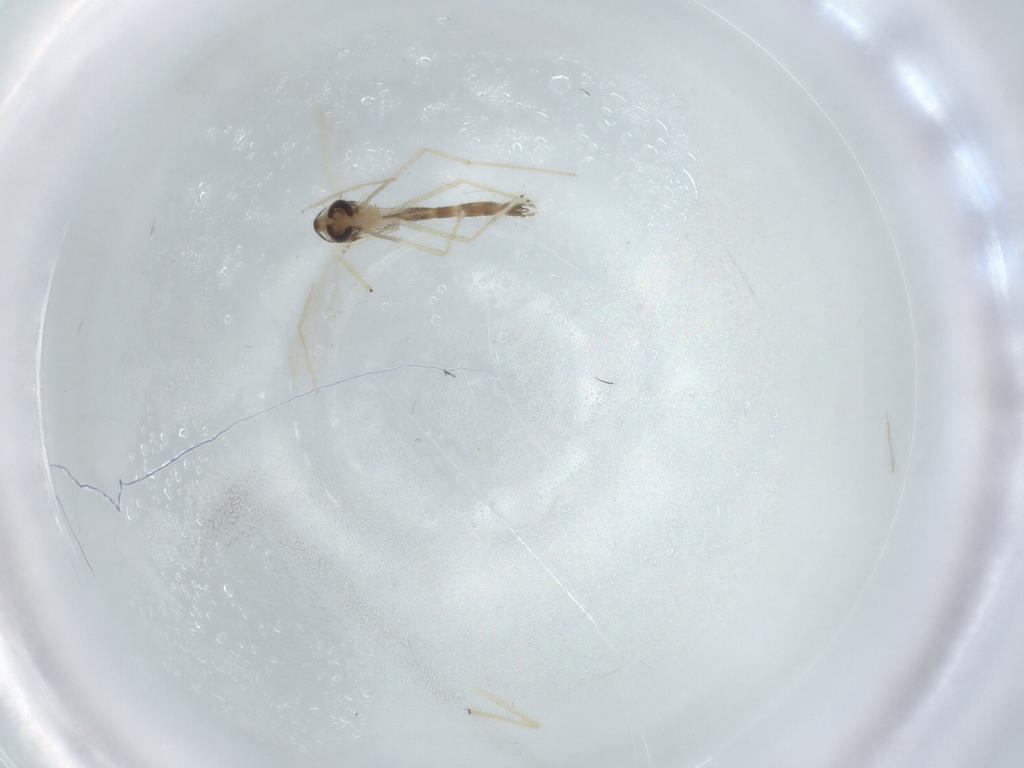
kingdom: Animalia
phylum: Arthropoda
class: Insecta
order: Diptera
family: Chironomidae
